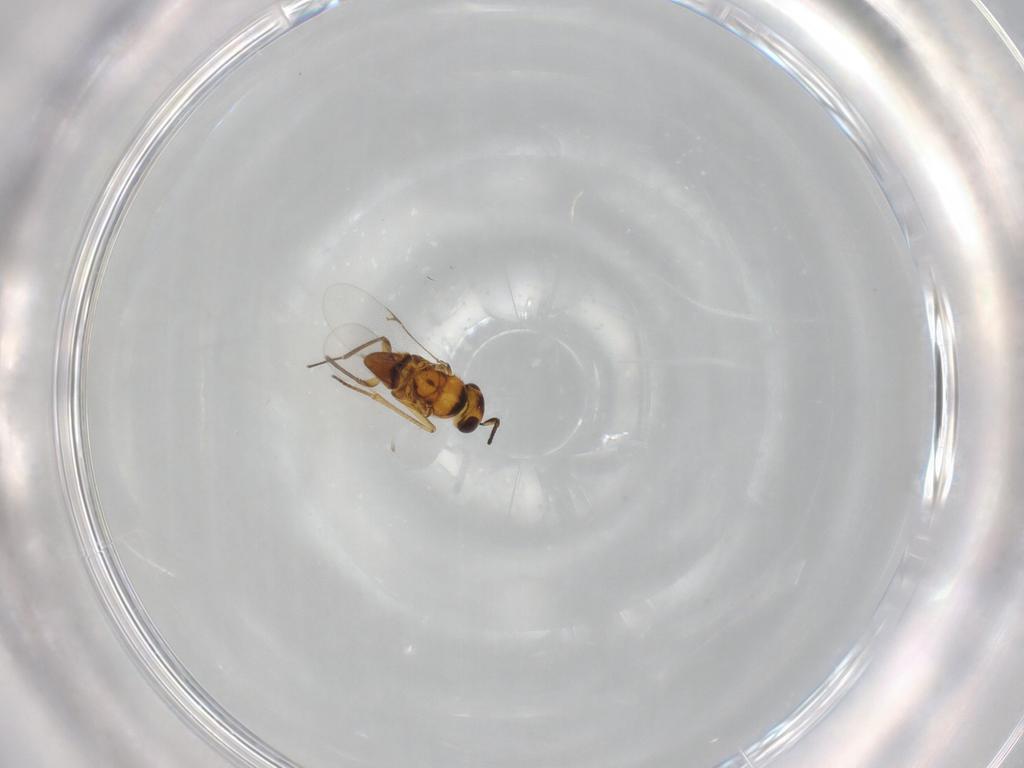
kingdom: Animalia
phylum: Arthropoda
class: Insecta
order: Hymenoptera
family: Encyrtidae
